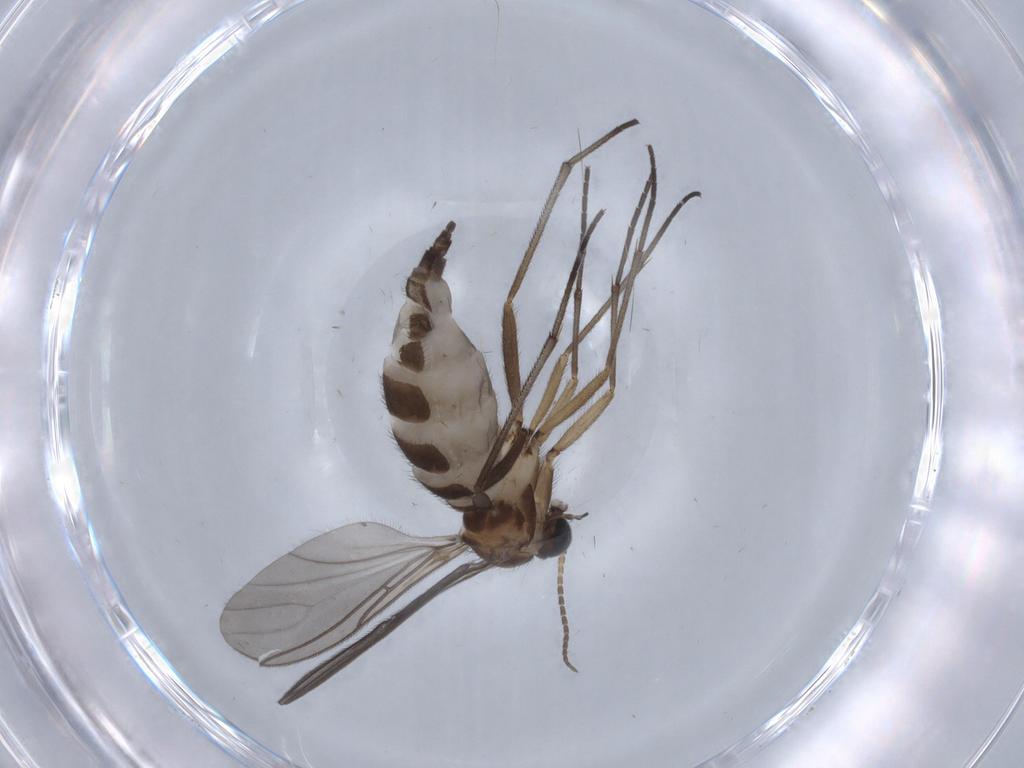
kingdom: Animalia
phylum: Arthropoda
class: Insecta
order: Diptera
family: Sciaridae
